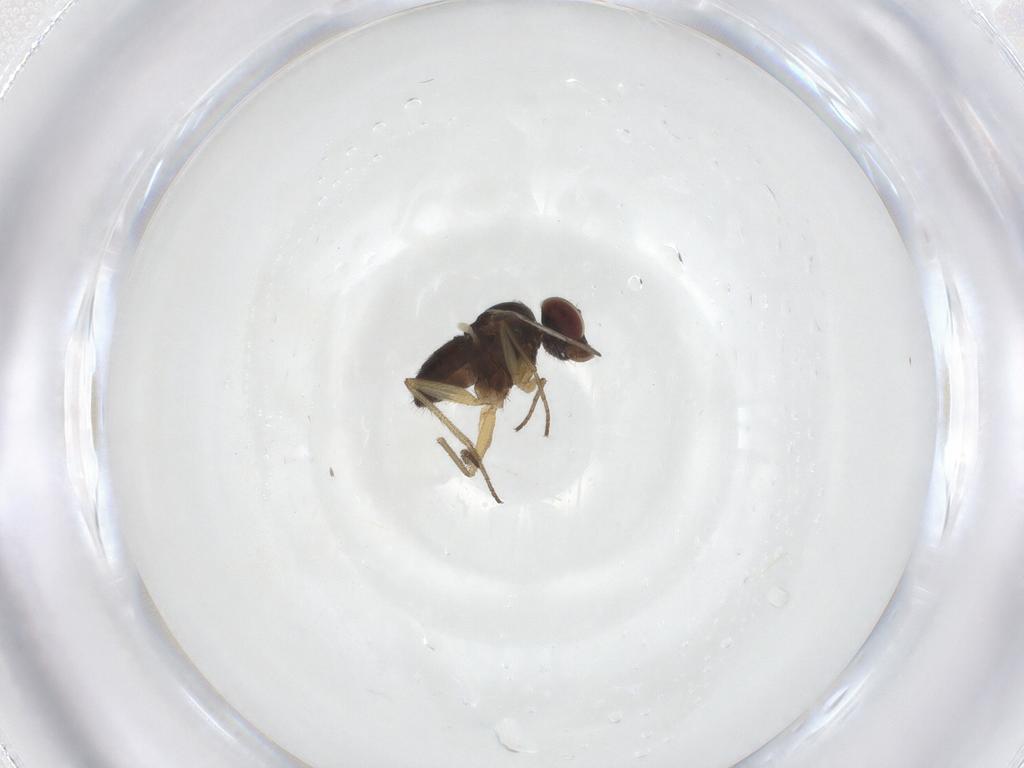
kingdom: Animalia
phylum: Arthropoda
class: Insecta
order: Diptera
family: Dolichopodidae
